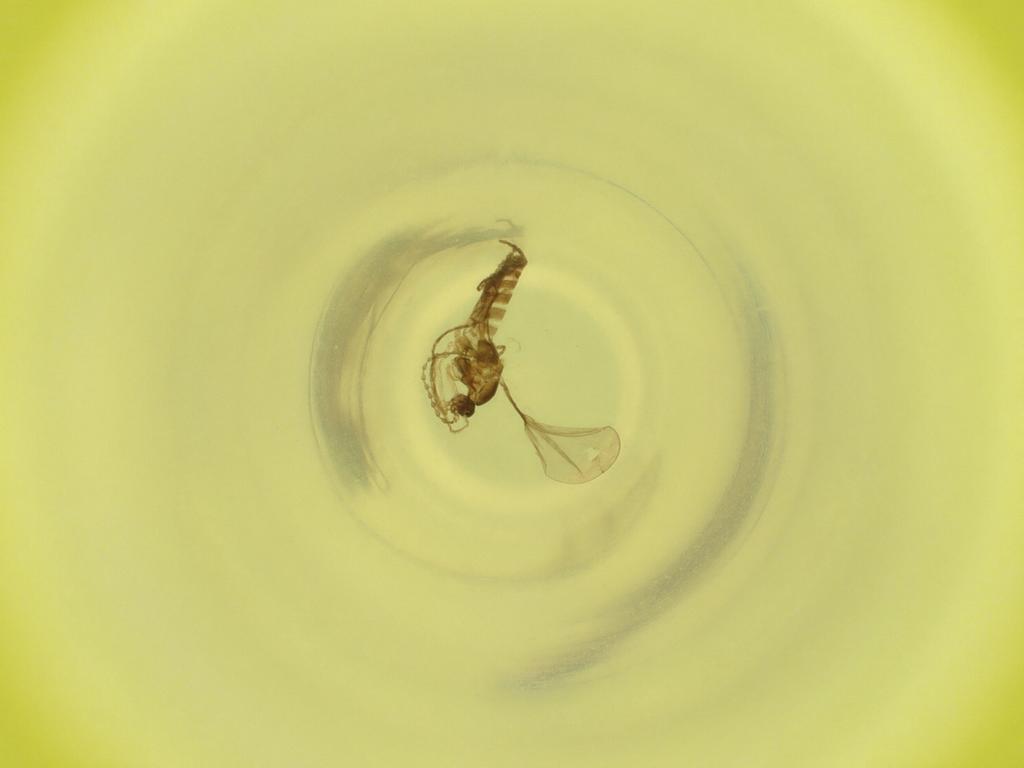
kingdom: Animalia
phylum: Arthropoda
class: Insecta
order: Diptera
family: Cecidomyiidae
